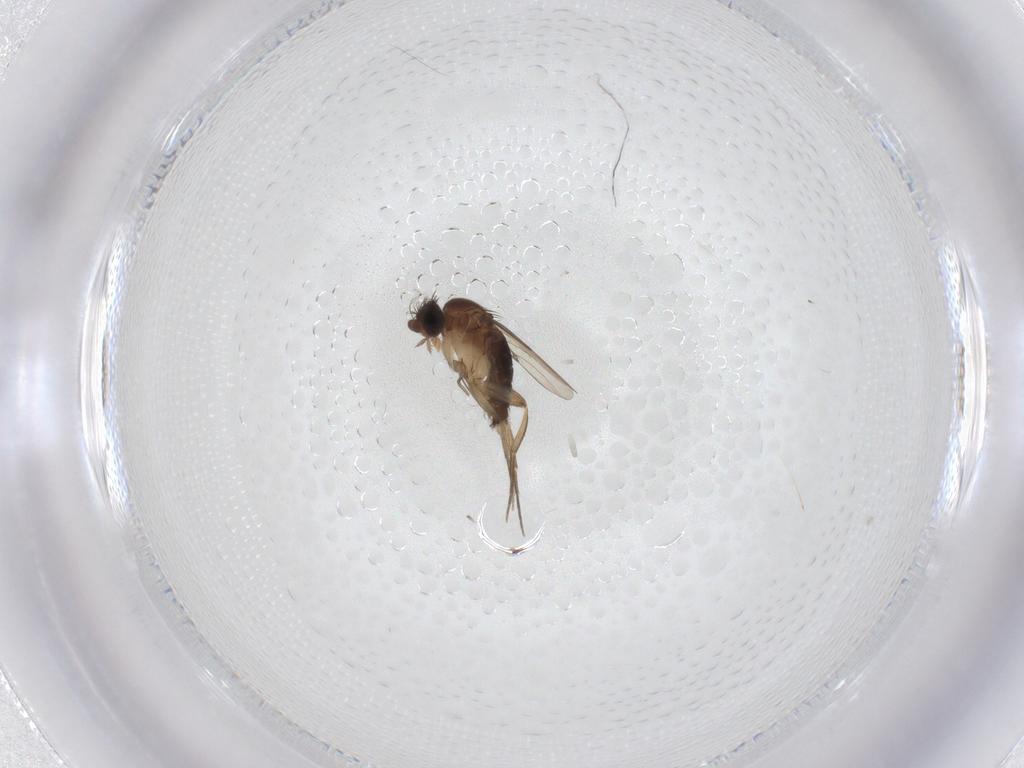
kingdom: Animalia
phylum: Arthropoda
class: Insecta
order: Diptera
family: Phoridae
